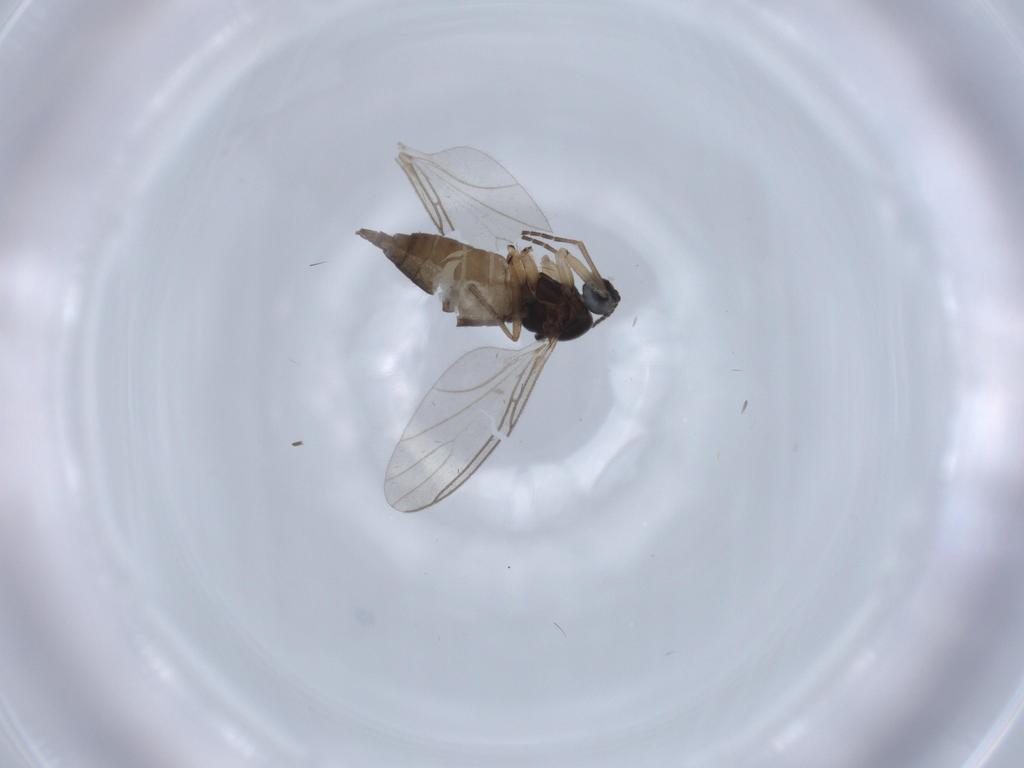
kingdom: Animalia
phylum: Arthropoda
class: Insecta
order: Diptera
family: Sciaridae
